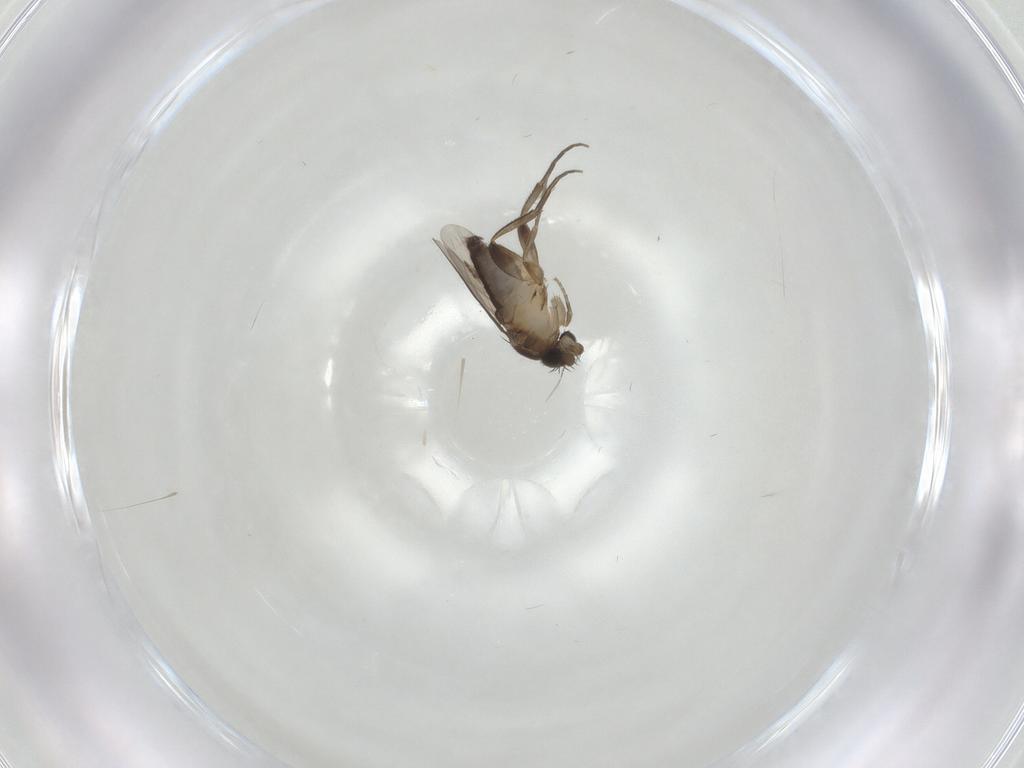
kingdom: Animalia
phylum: Arthropoda
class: Insecta
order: Diptera
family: Phoridae
